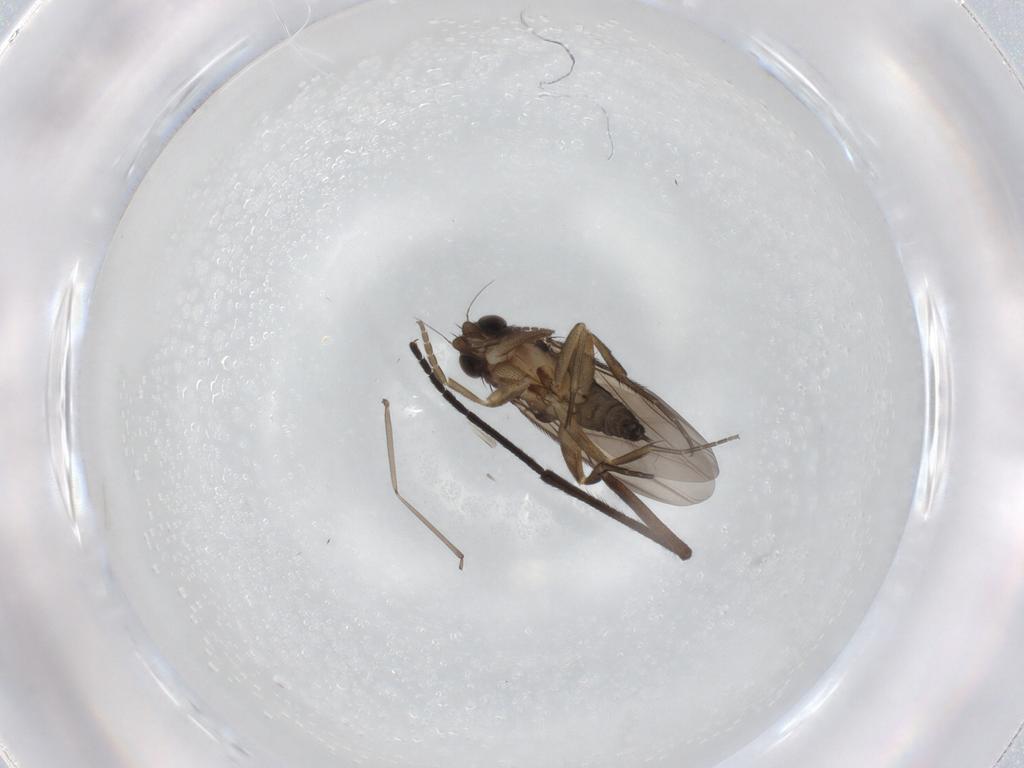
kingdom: Animalia
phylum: Arthropoda
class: Insecta
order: Diptera
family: Phoridae
